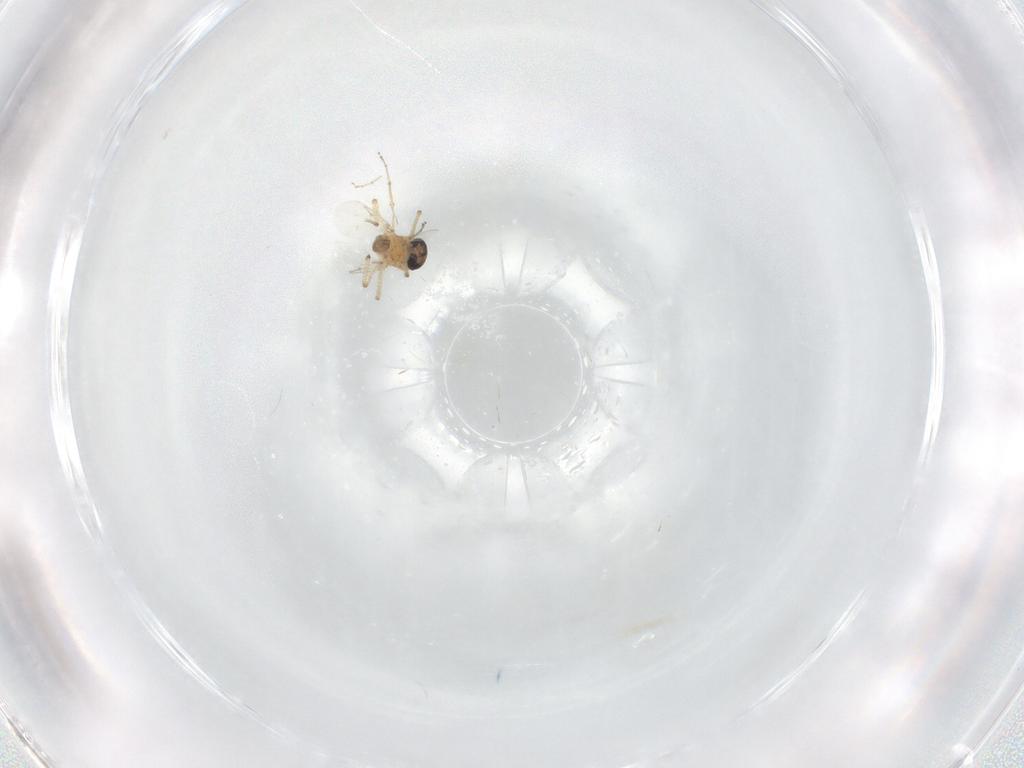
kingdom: Animalia
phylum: Arthropoda
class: Insecta
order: Diptera
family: Ceratopogonidae
